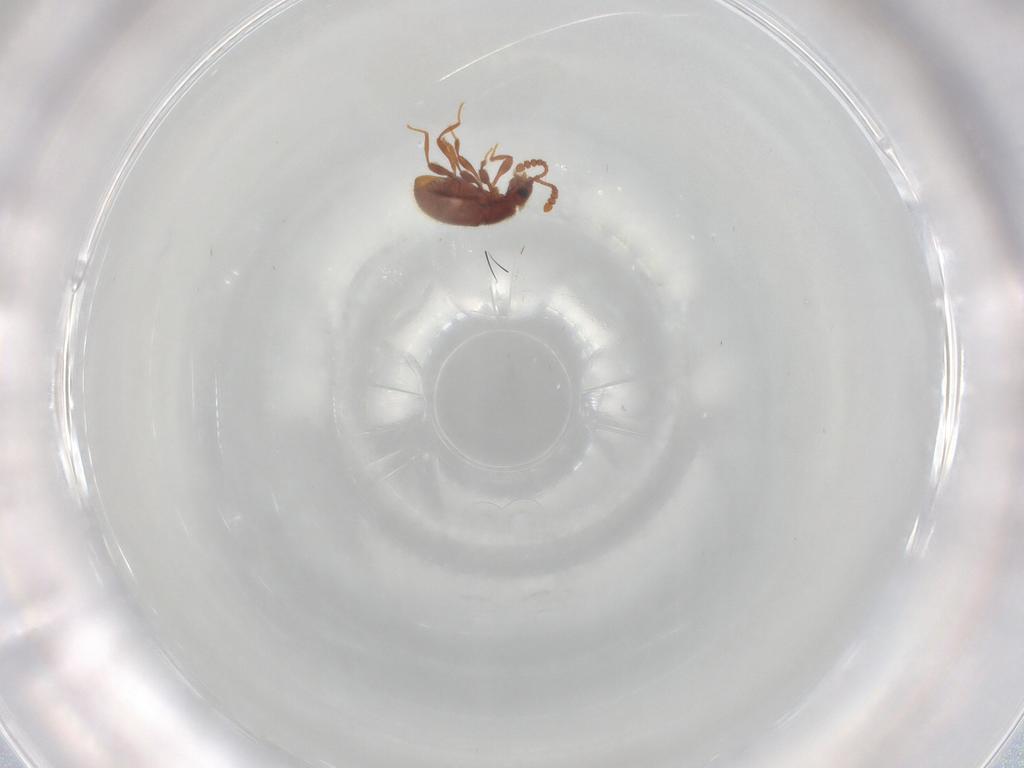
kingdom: Animalia
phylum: Arthropoda
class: Insecta
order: Coleoptera
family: Staphylinidae
